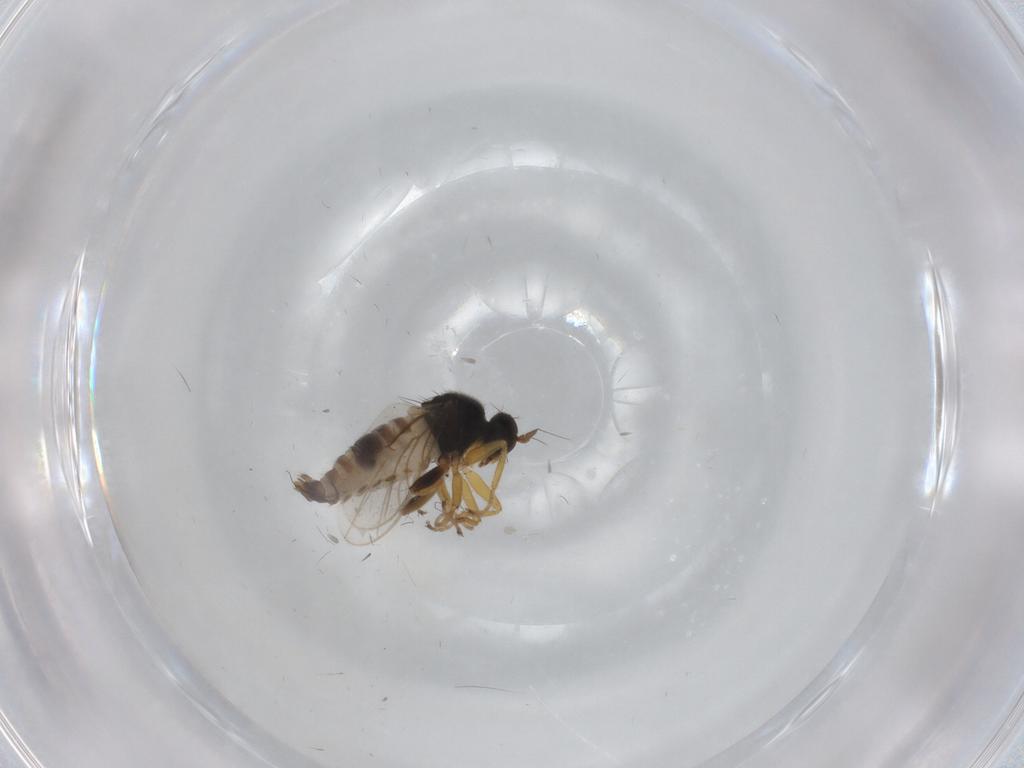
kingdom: Animalia
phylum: Arthropoda
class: Insecta
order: Diptera
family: Hybotidae
